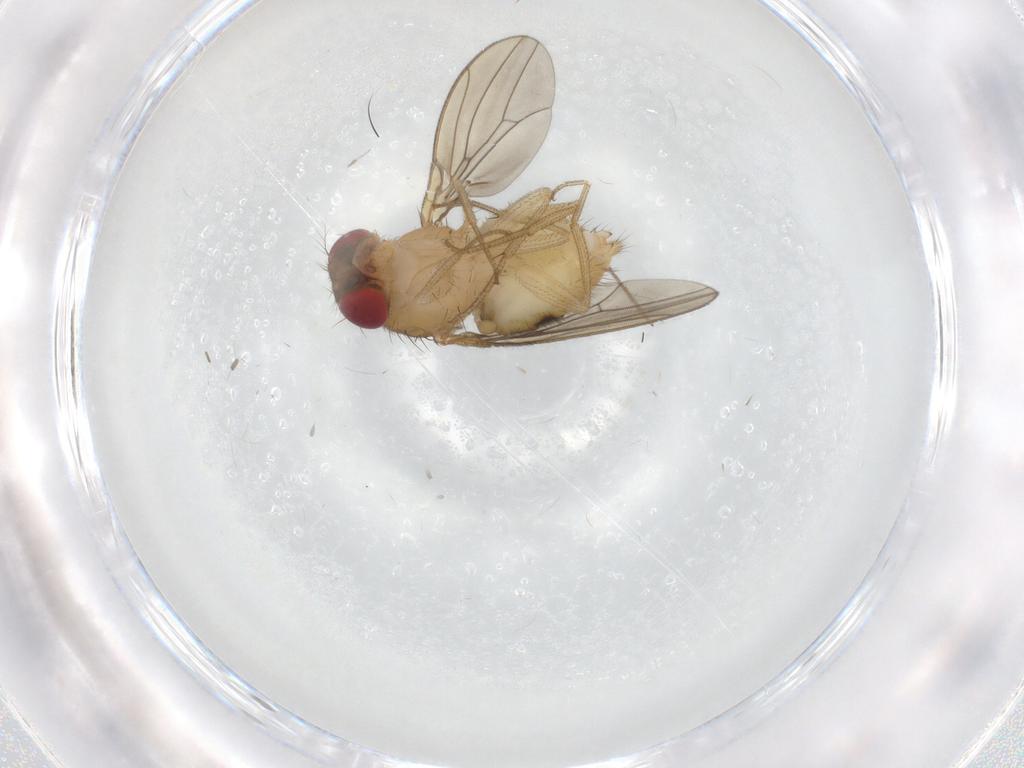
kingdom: Animalia
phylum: Arthropoda
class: Insecta
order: Diptera
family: Drosophilidae
